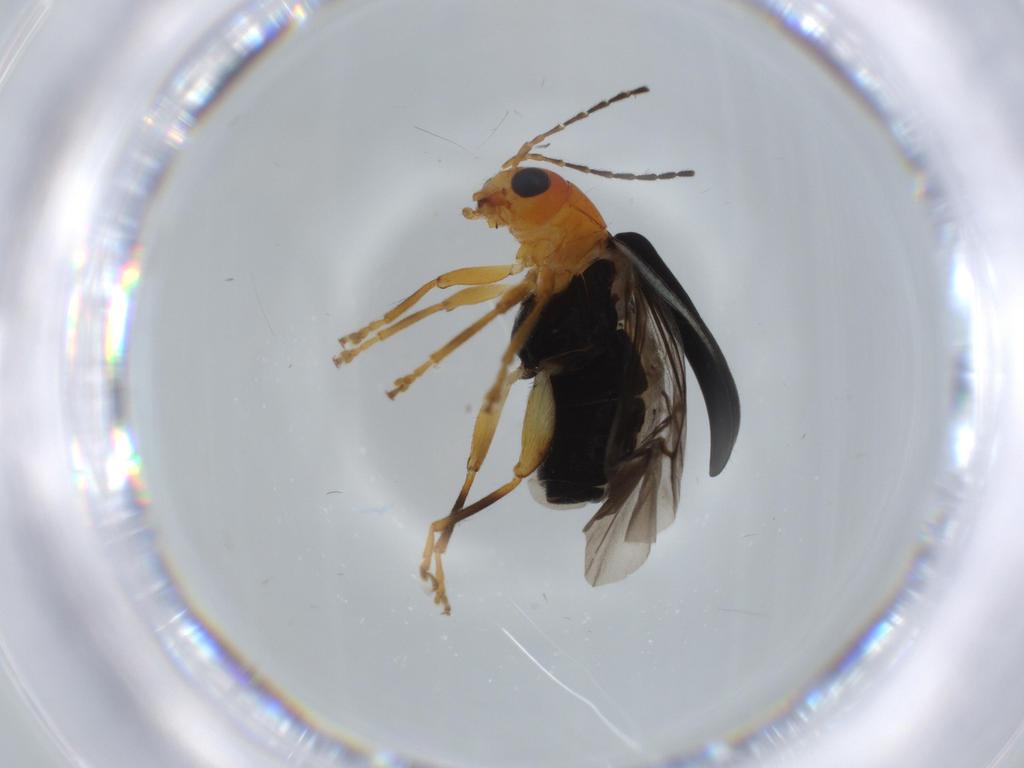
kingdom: Animalia
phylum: Arthropoda
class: Insecta
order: Coleoptera
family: Chrysomelidae
